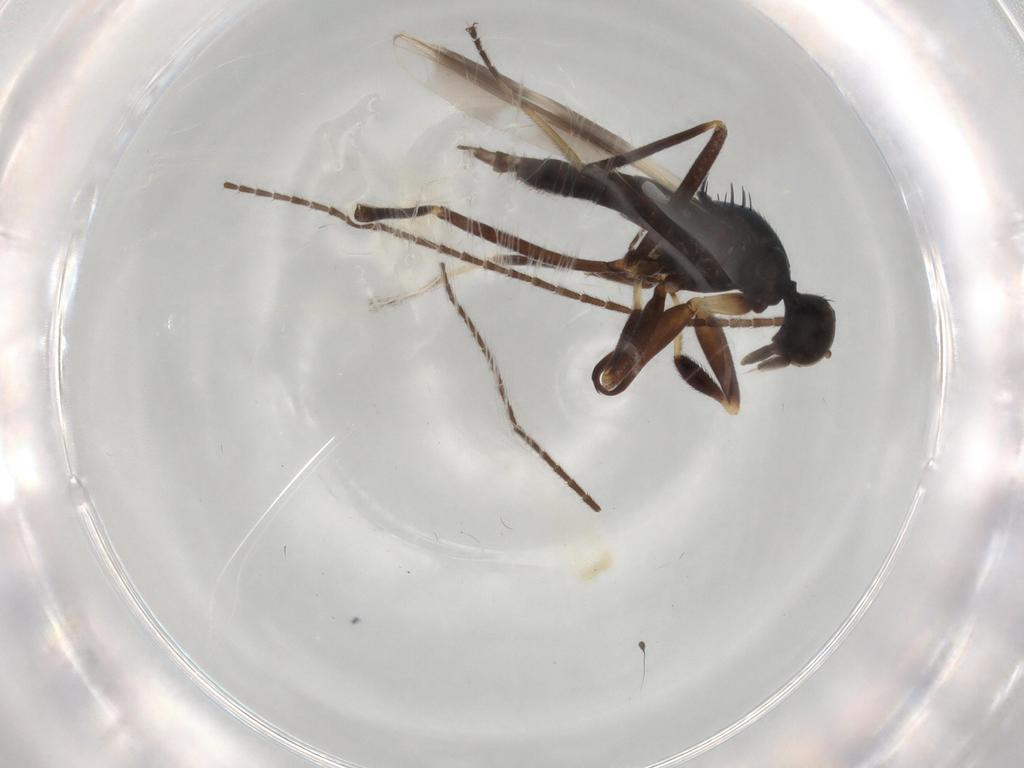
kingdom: Animalia
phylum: Arthropoda
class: Insecta
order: Diptera
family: Hybotidae
